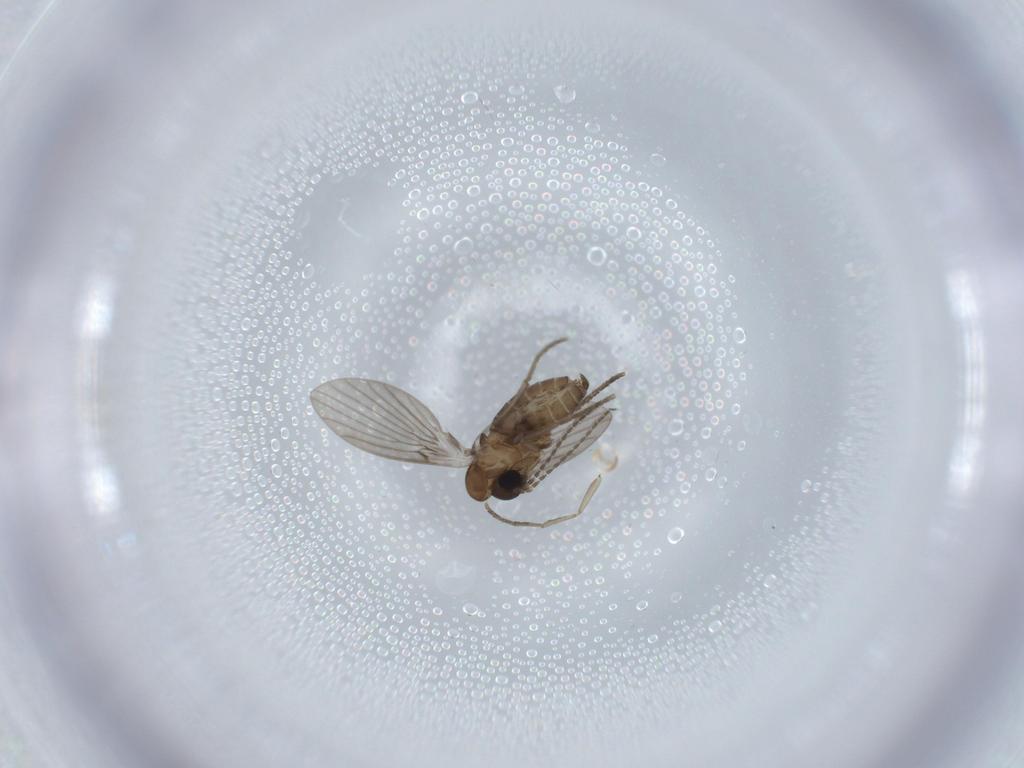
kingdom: Animalia
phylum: Arthropoda
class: Insecta
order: Diptera
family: Psychodidae
